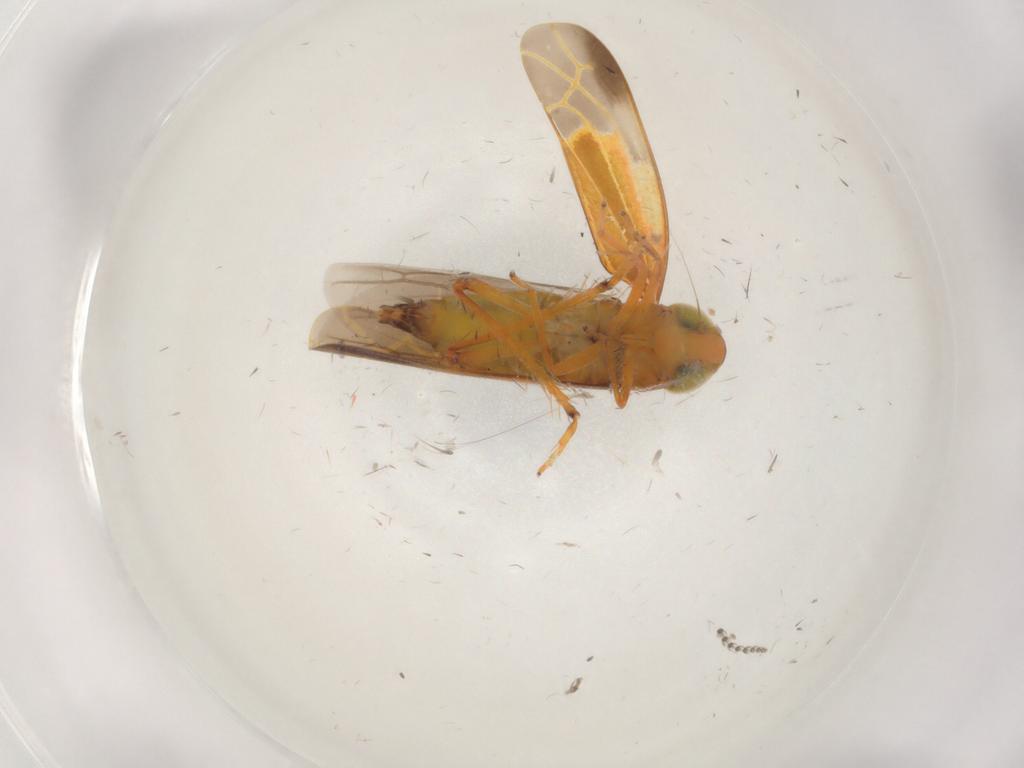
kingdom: Animalia
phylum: Arthropoda
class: Insecta
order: Hemiptera
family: Cicadellidae
